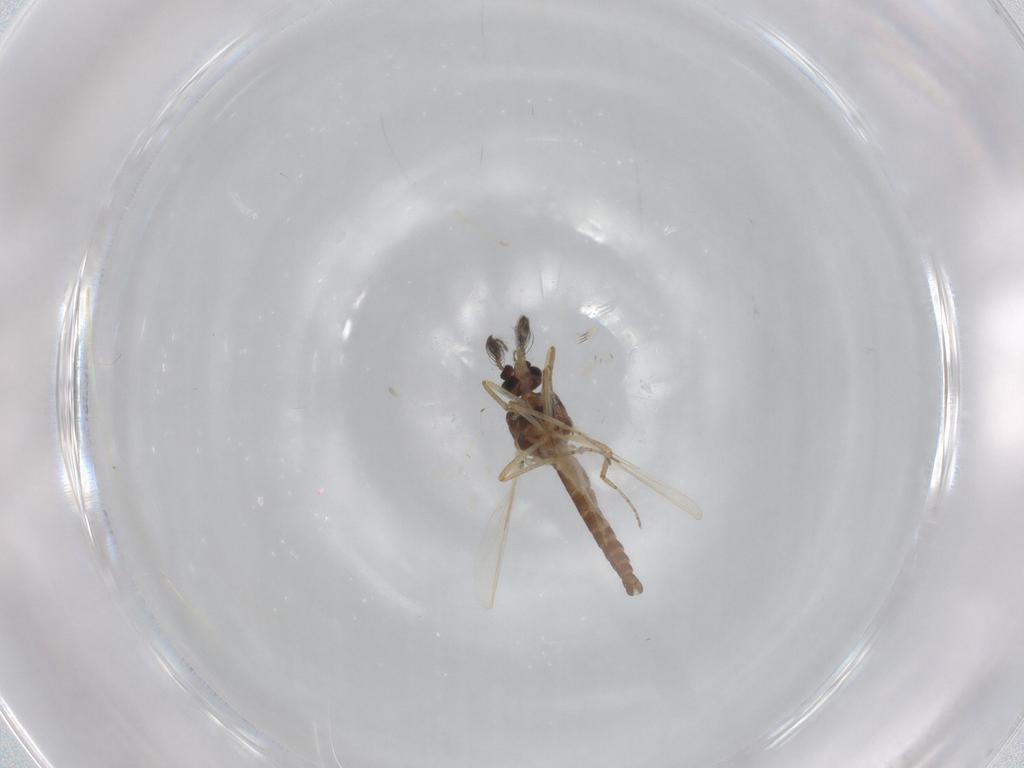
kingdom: Animalia
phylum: Arthropoda
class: Insecta
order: Diptera
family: Ceratopogonidae
